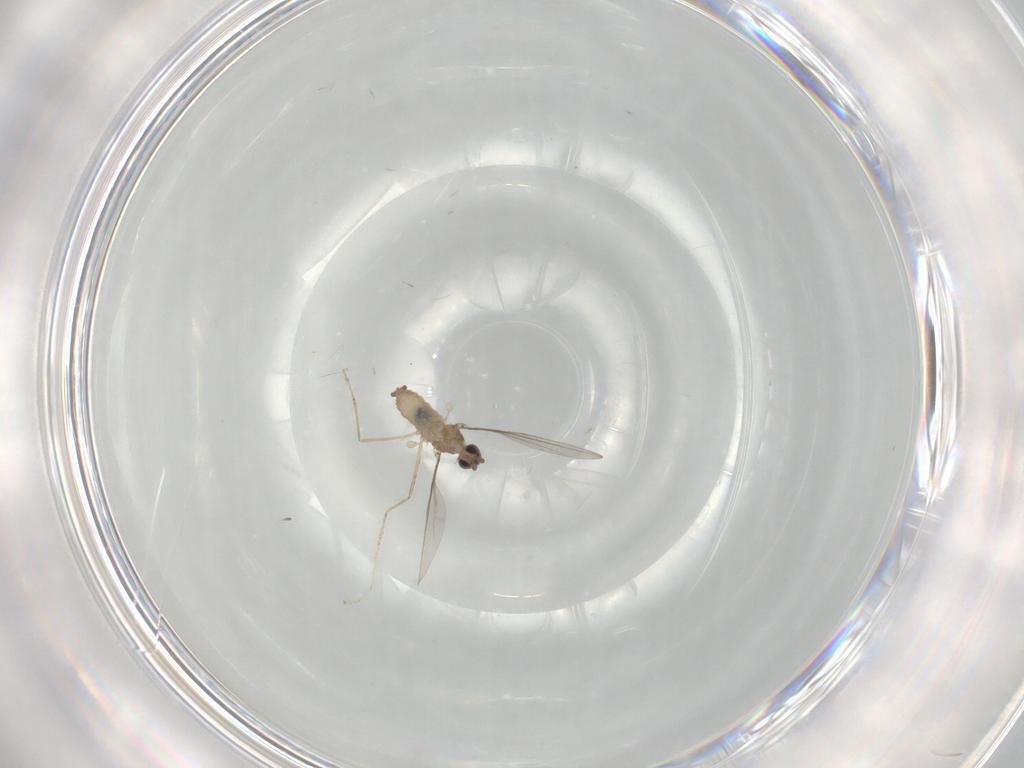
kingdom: Animalia
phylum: Arthropoda
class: Insecta
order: Diptera
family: Cecidomyiidae
